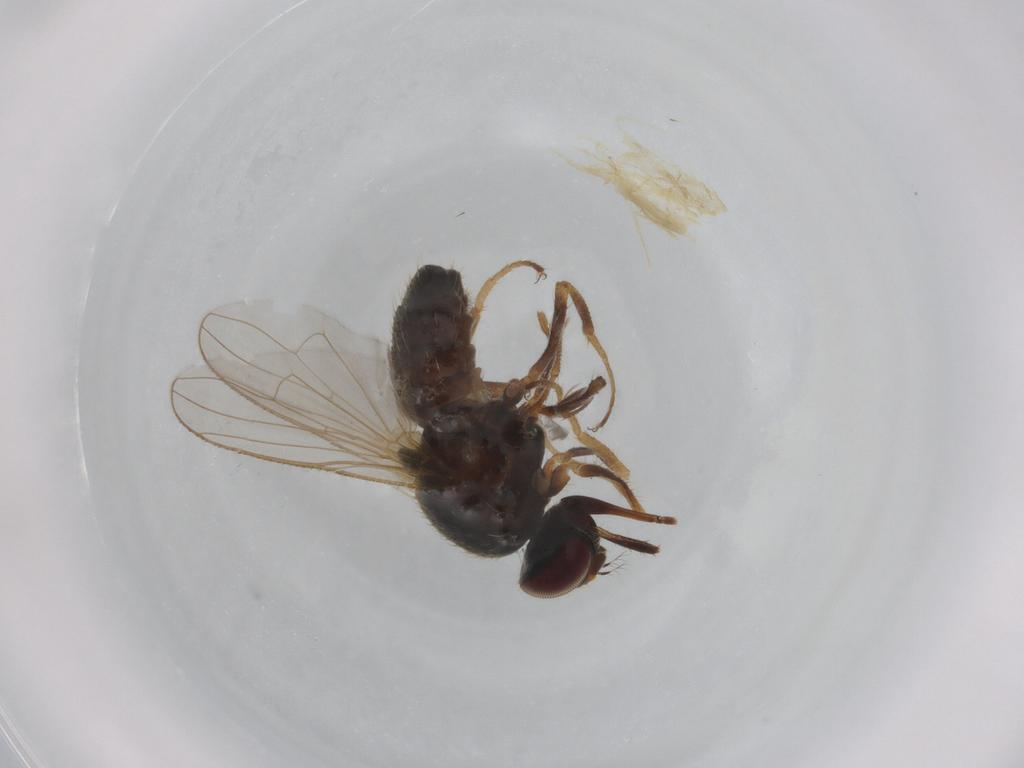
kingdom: Animalia
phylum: Arthropoda
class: Insecta
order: Diptera
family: Muscidae
